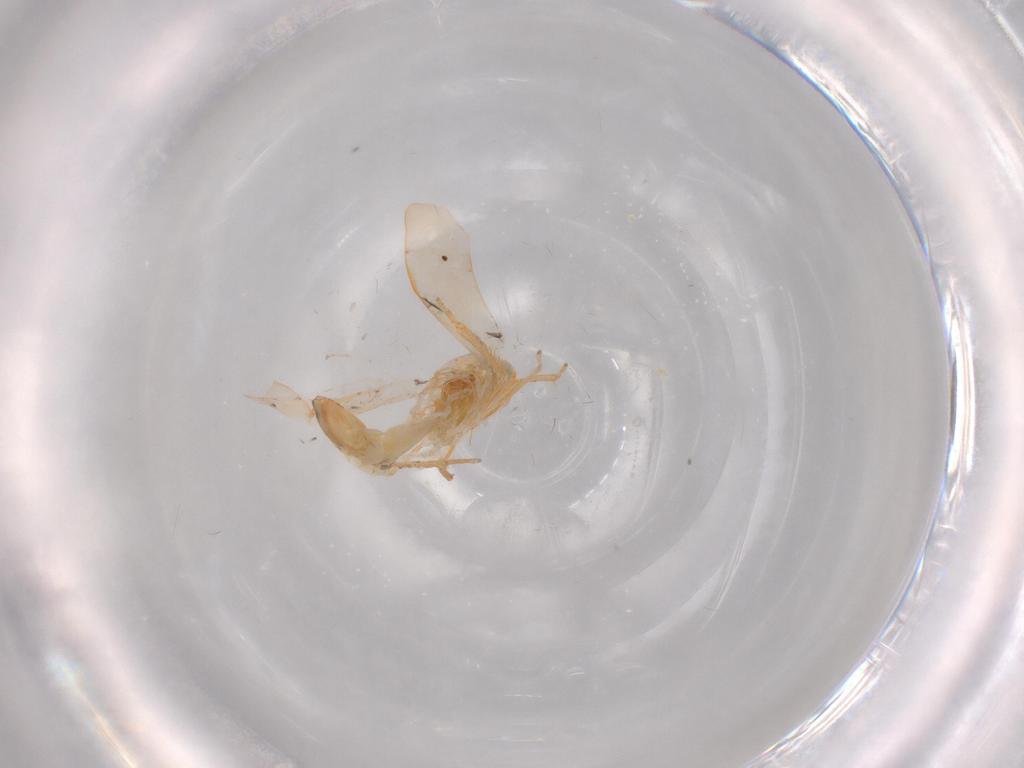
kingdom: Animalia
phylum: Arthropoda
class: Insecta
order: Hemiptera
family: Cicadellidae
